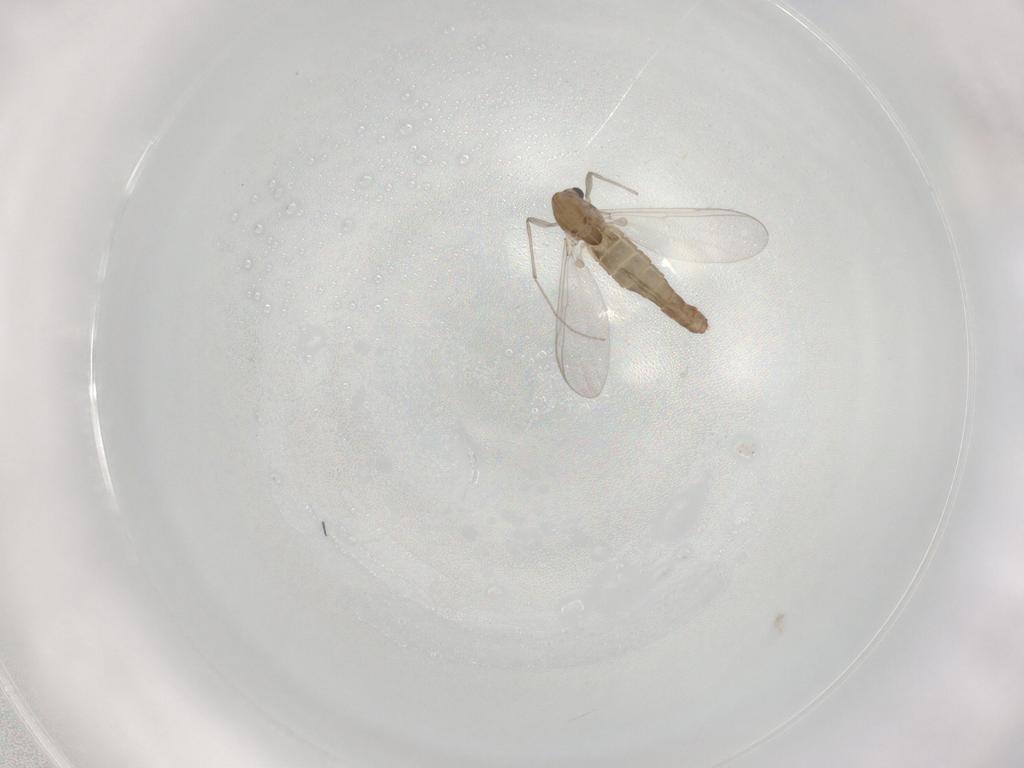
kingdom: Animalia
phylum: Arthropoda
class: Insecta
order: Diptera
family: Chironomidae
